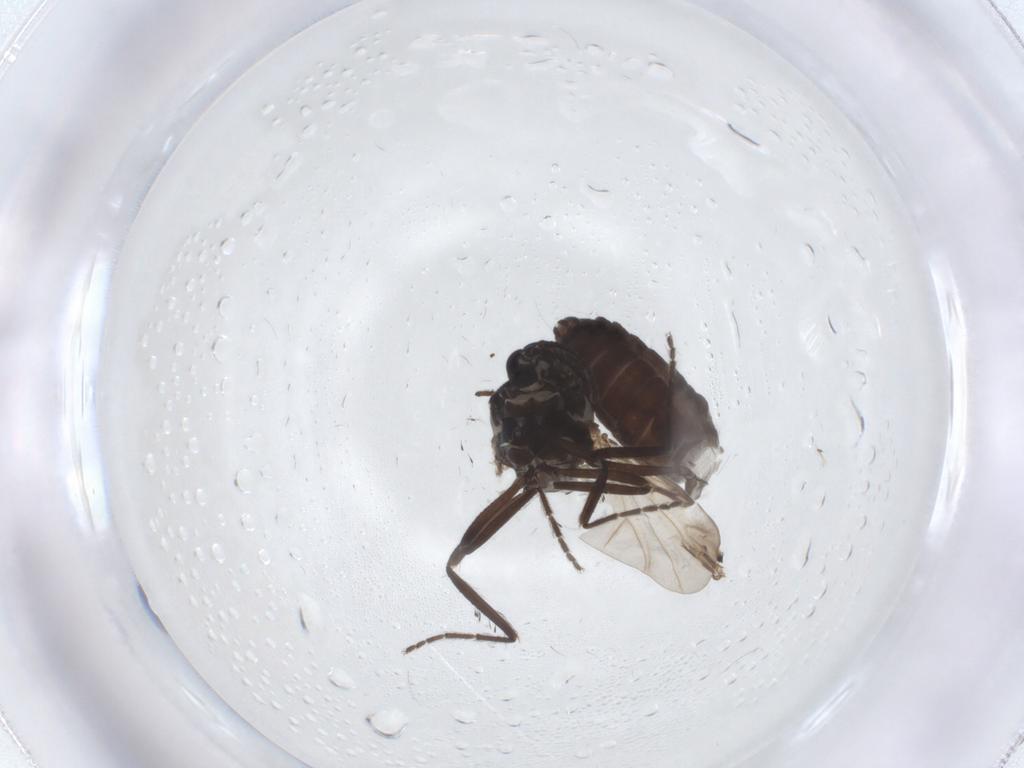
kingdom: Animalia
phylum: Arthropoda
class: Insecta
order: Diptera
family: Ceratopogonidae
